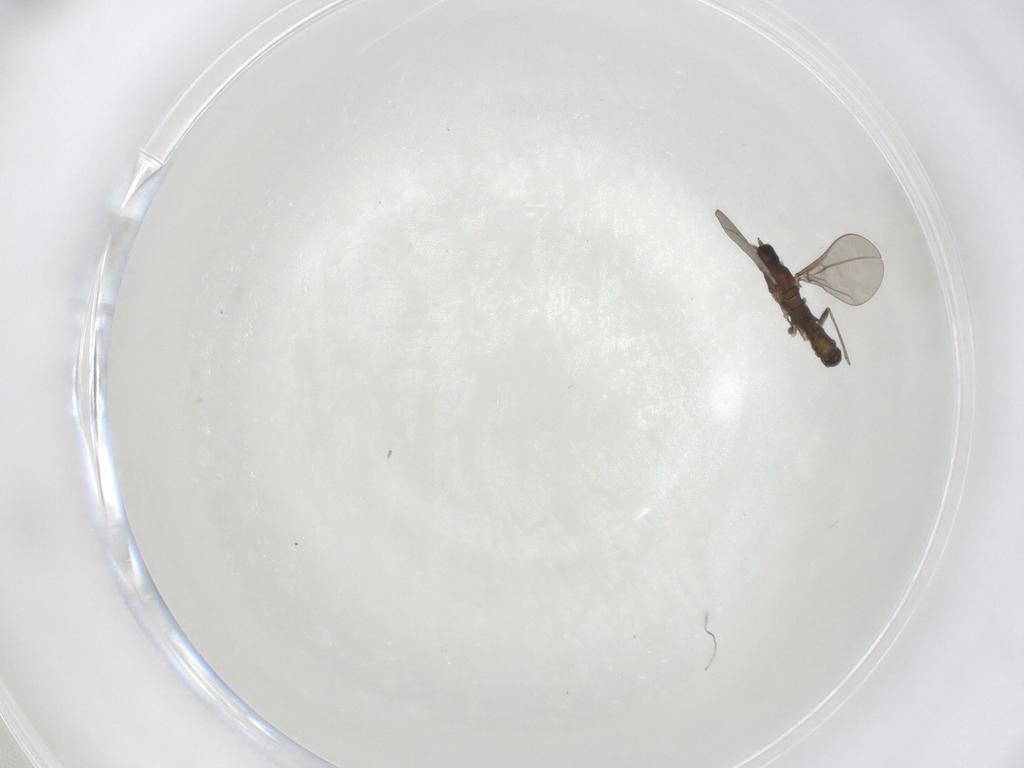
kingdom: Animalia
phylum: Arthropoda
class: Insecta
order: Diptera
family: Cecidomyiidae
